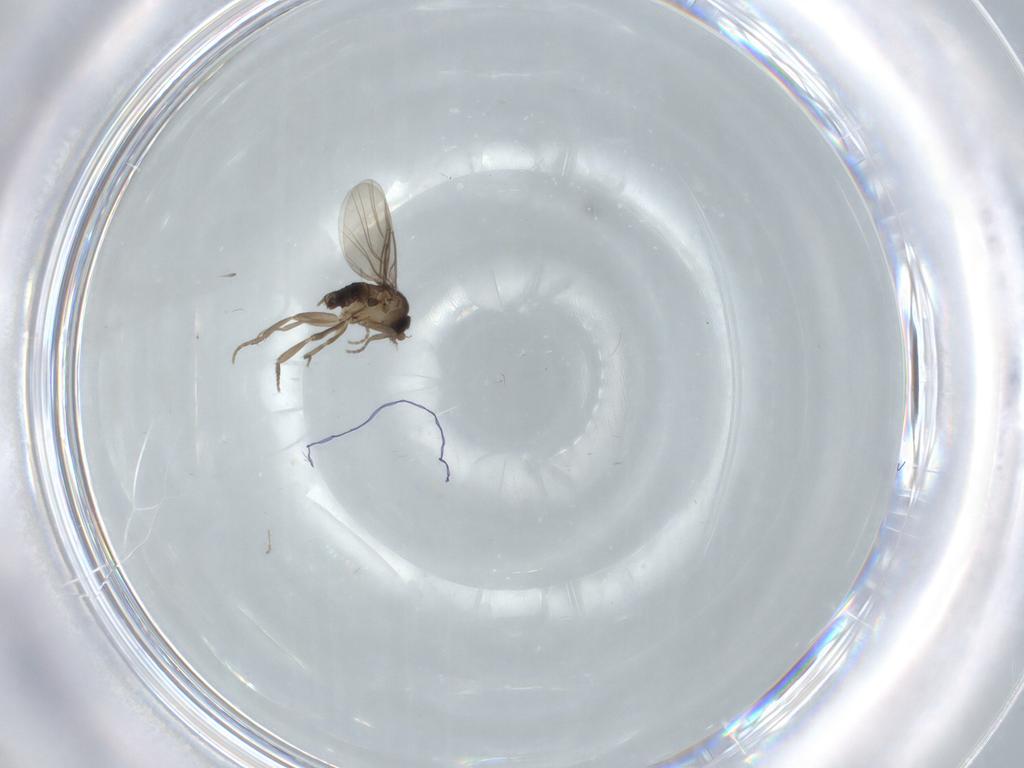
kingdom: Animalia
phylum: Arthropoda
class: Insecta
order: Diptera
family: Phoridae
